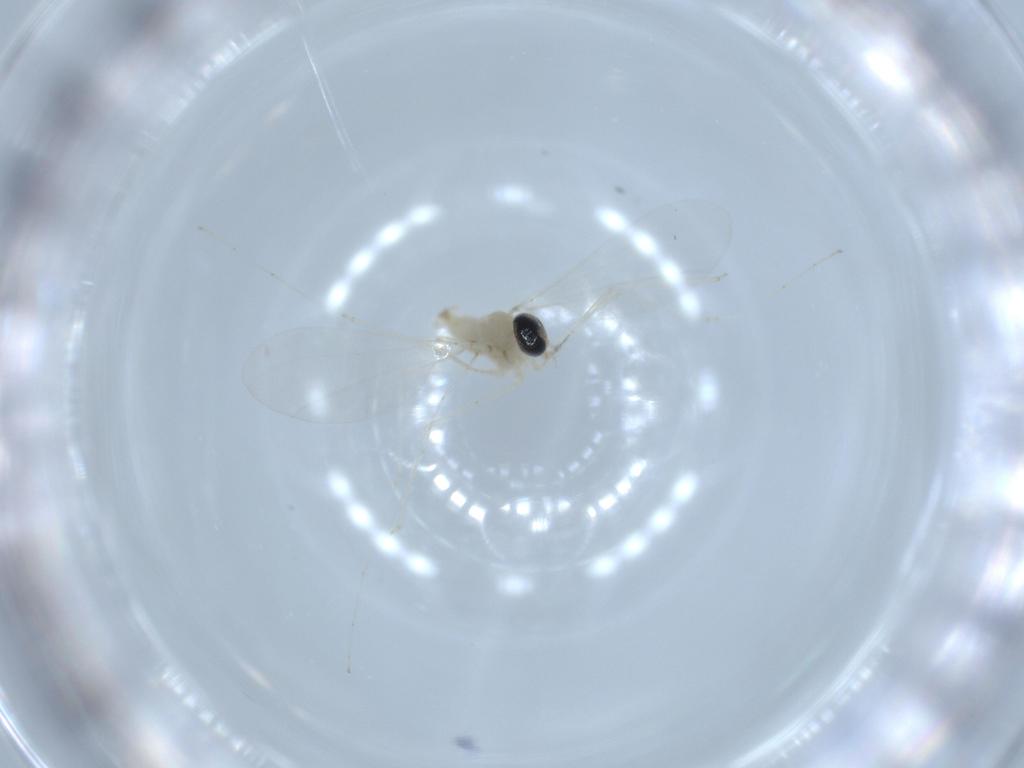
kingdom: Animalia
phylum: Arthropoda
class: Insecta
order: Diptera
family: Cecidomyiidae
